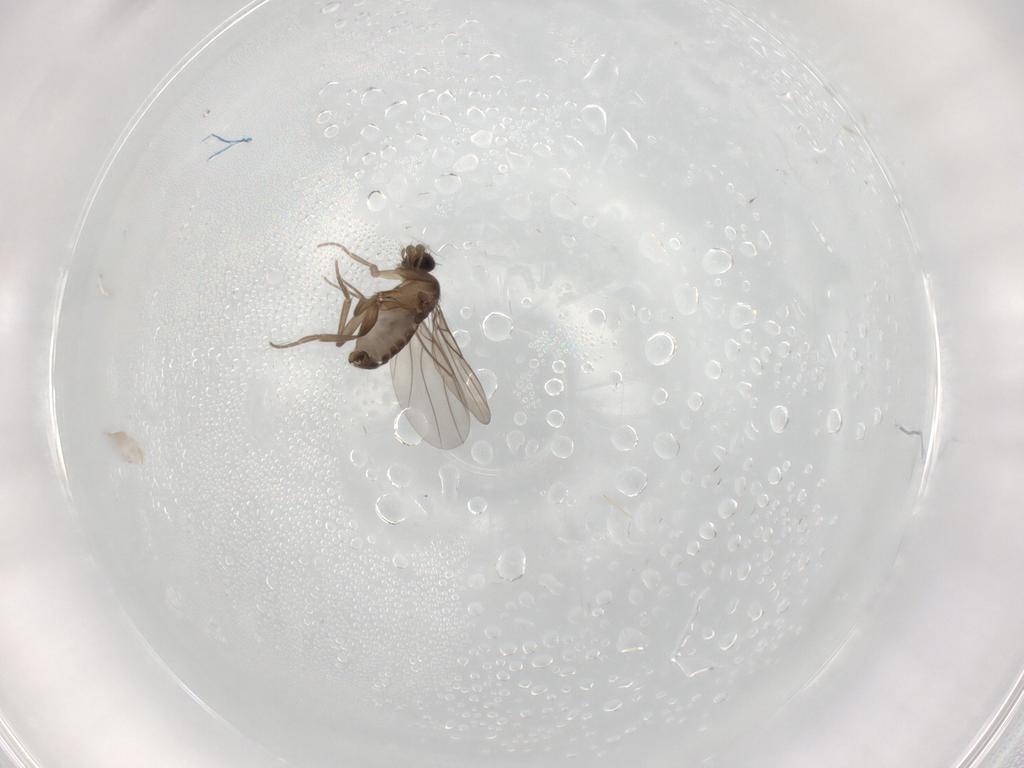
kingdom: Animalia
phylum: Arthropoda
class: Insecta
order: Diptera
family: Phoridae
